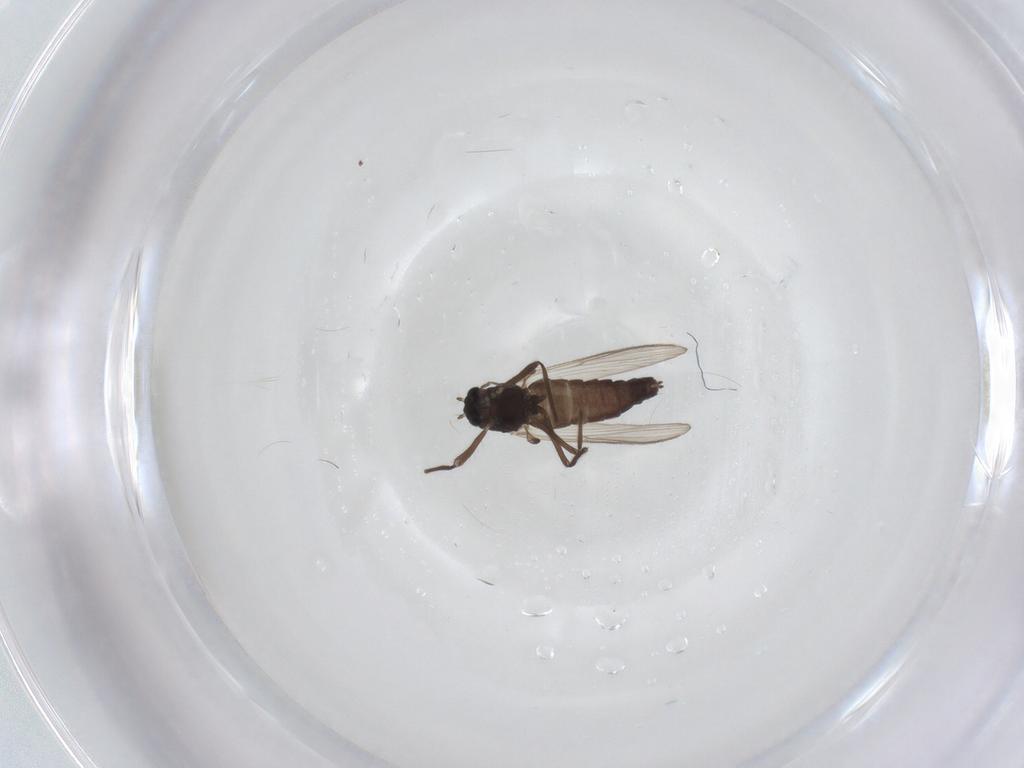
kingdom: Animalia
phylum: Arthropoda
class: Insecta
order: Diptera
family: Chironomidae
